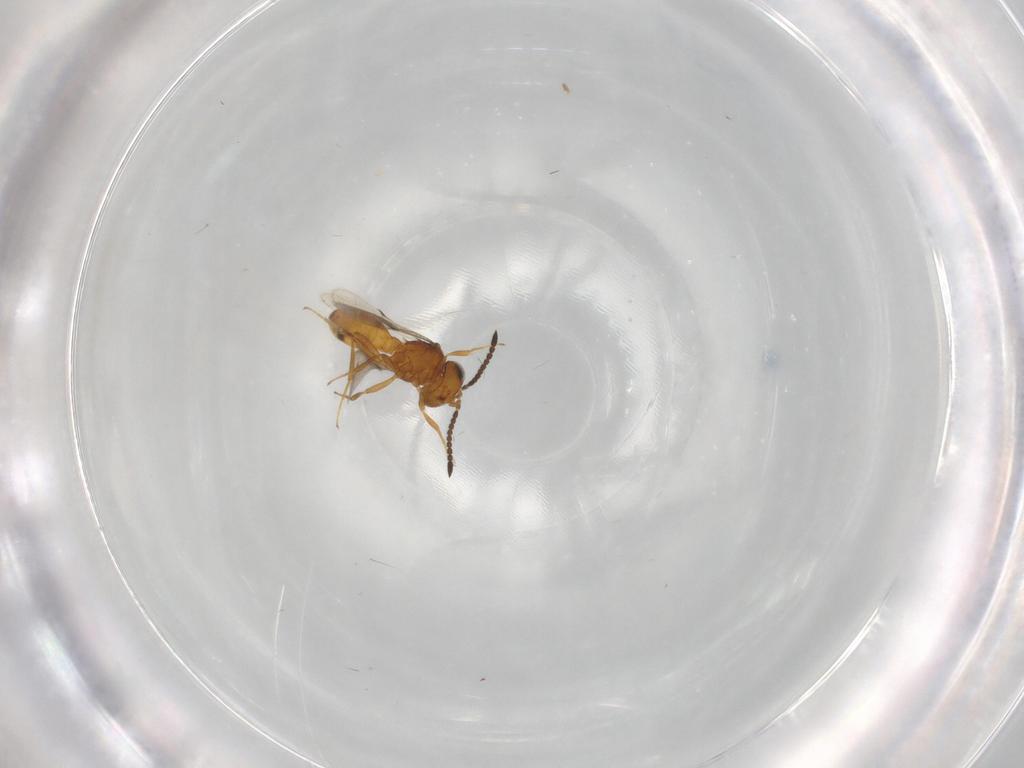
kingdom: Animalia
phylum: Arthropoda
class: Insecta
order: Hymenoptera
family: Scelionidae
